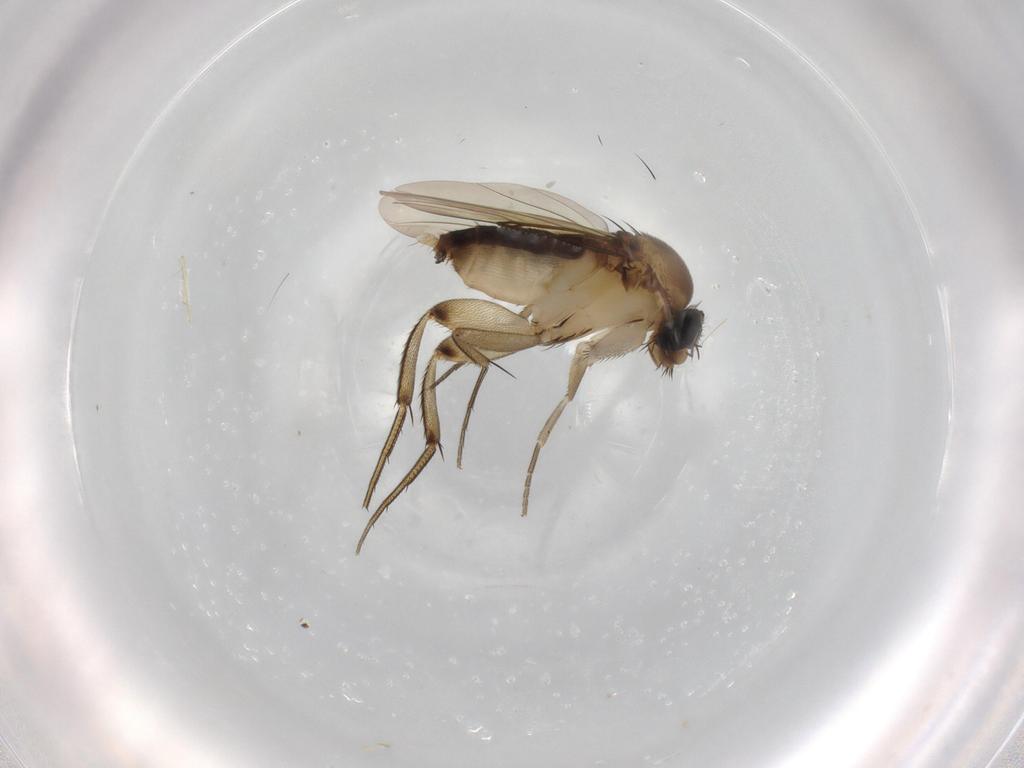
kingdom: Animalia
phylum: Arthropoda
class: Insecta
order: Diptera
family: Phoridae
